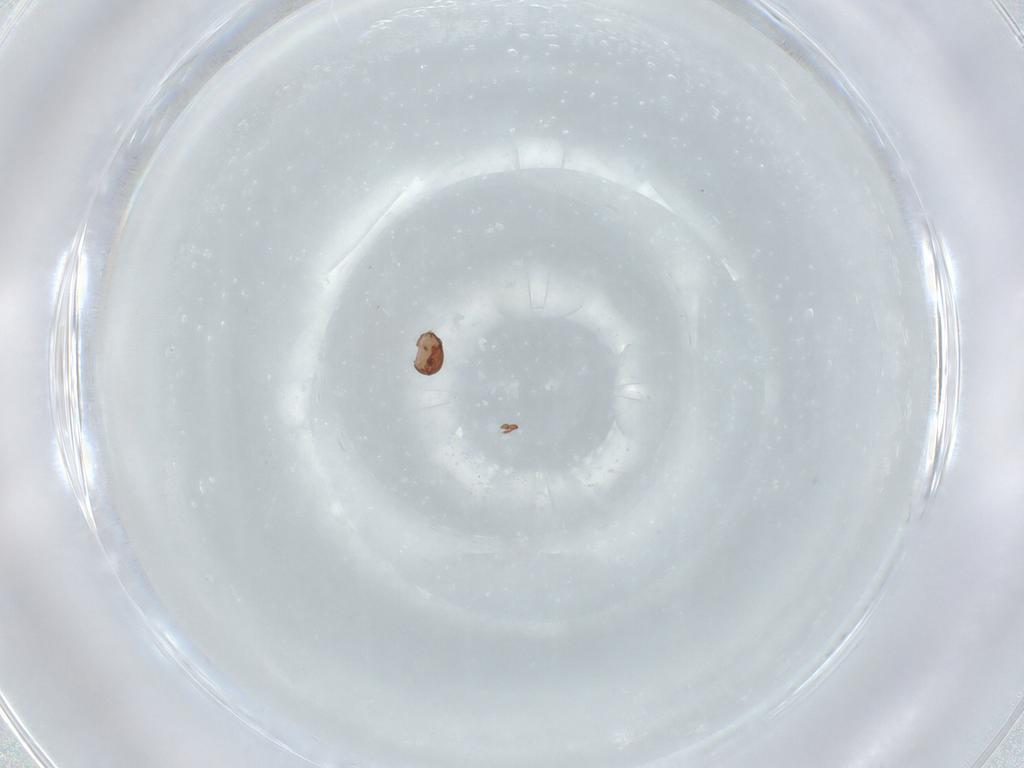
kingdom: Animalia
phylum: Arthropoda
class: Arachnida
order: Sarcoptiformes
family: Eremaeidae
